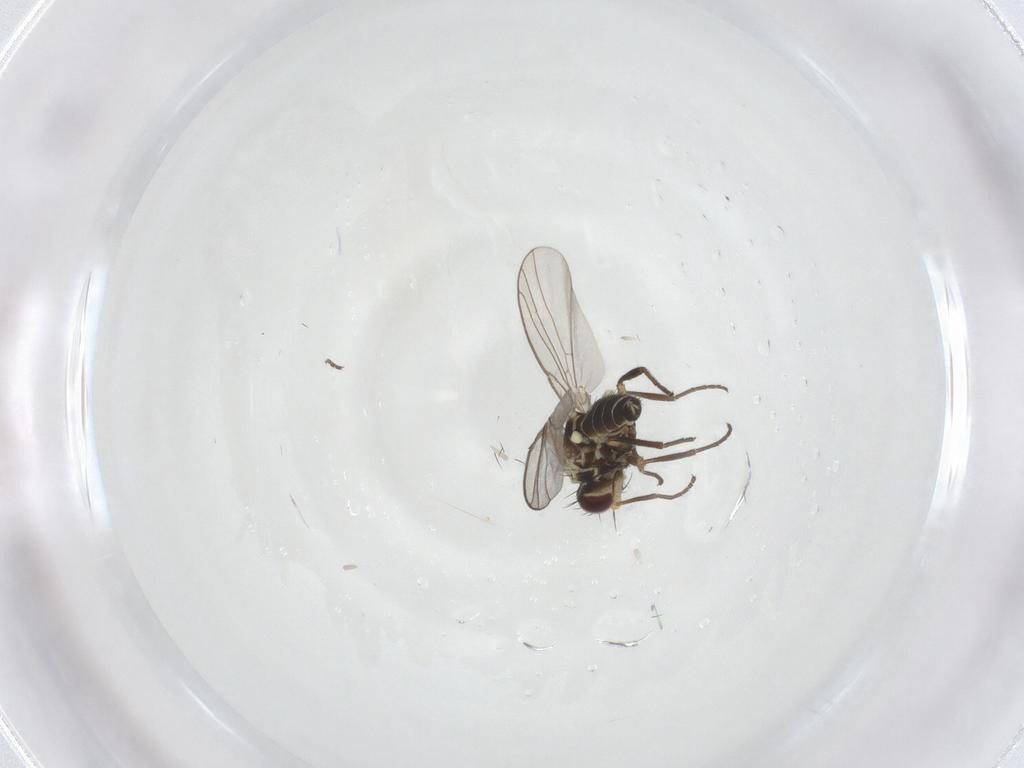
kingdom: Animalia
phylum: Arthropoda
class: Insecta
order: Diptera
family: Agromyzidae
